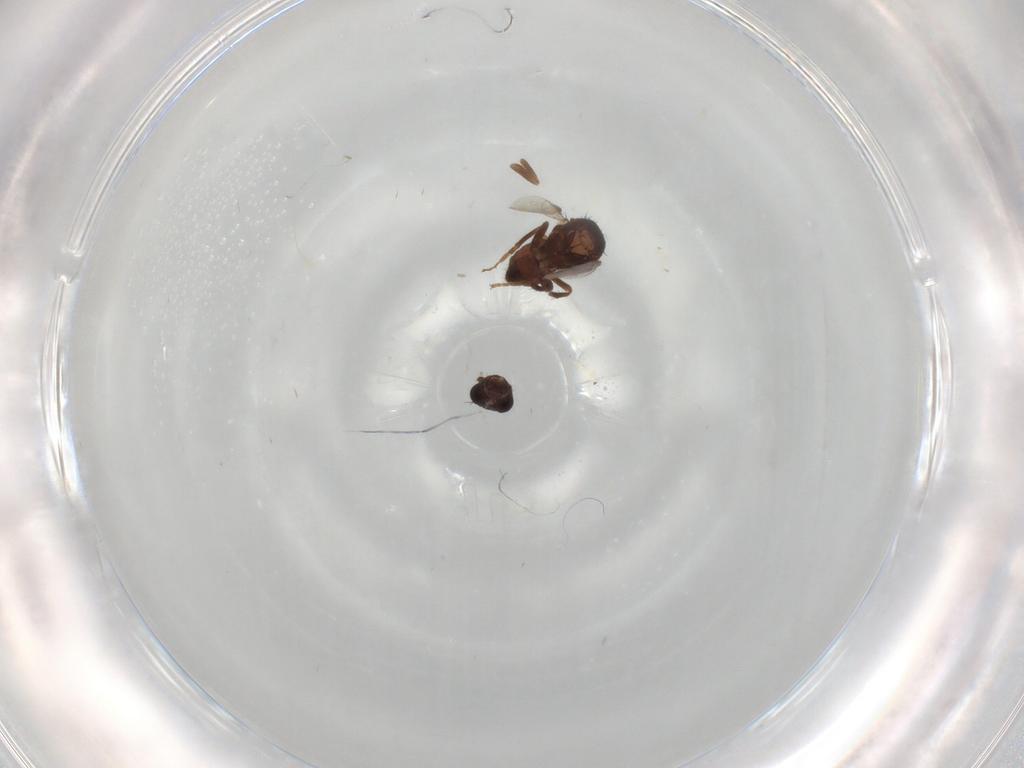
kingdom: Animalia
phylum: Arthropoda
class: Insecta
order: Diptera
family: Sphaeroceridae
